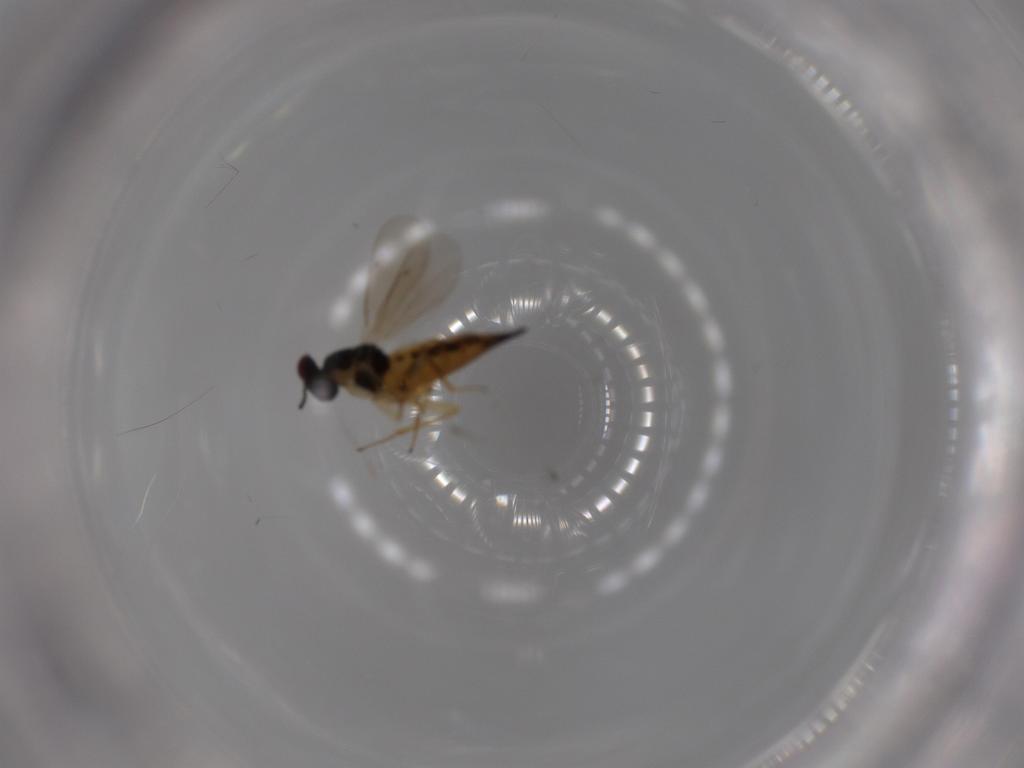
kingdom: Animalia
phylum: Arthropoda
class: Insecta
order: Hymenoptera
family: Eulophidae
